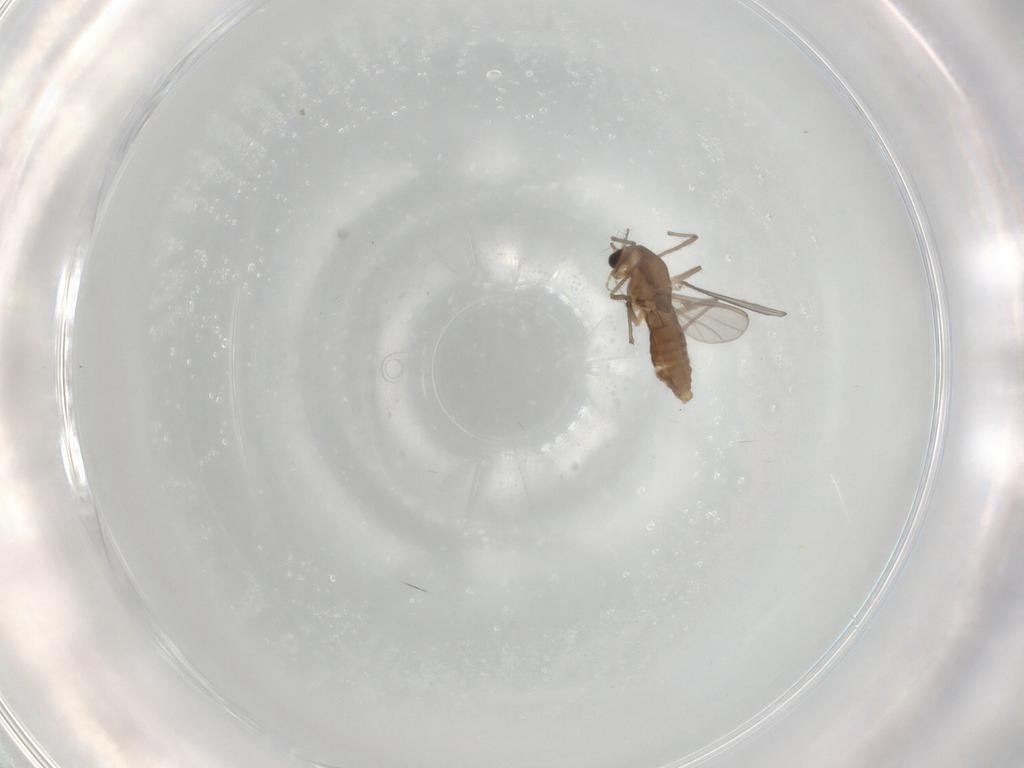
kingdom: Animalia
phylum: Arthropoda
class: Insecta
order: Diptera
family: Chironomidae
